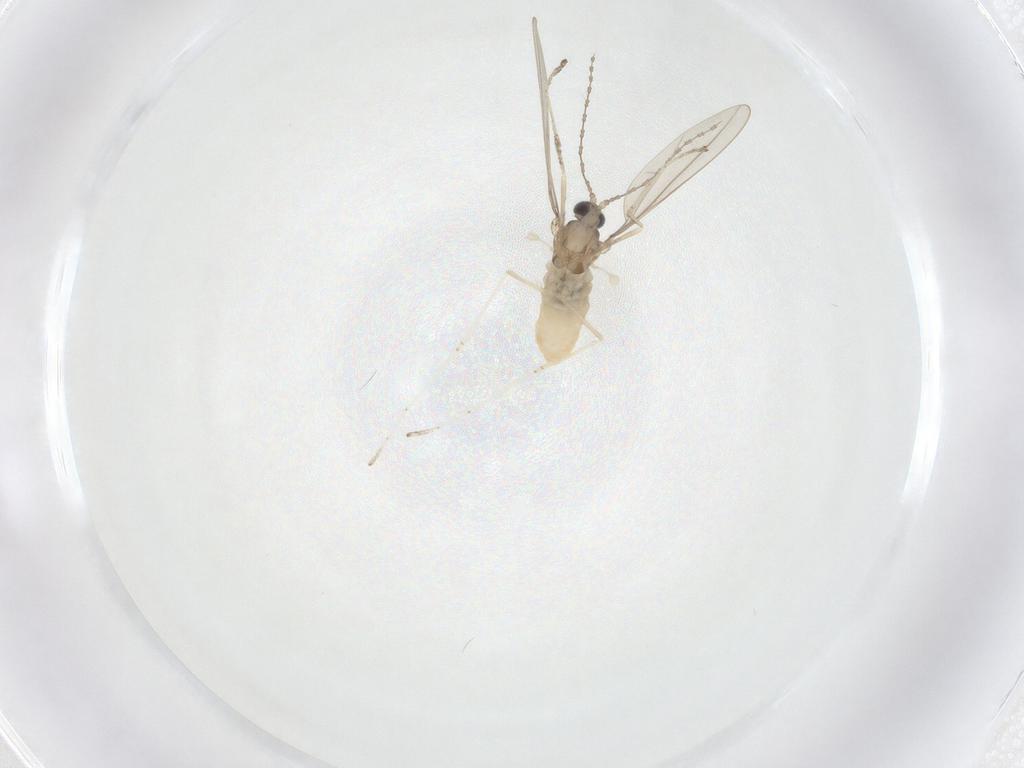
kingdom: Animalia
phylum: Arthropoda
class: Insecta
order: Diptera
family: Cecidomyiidae
